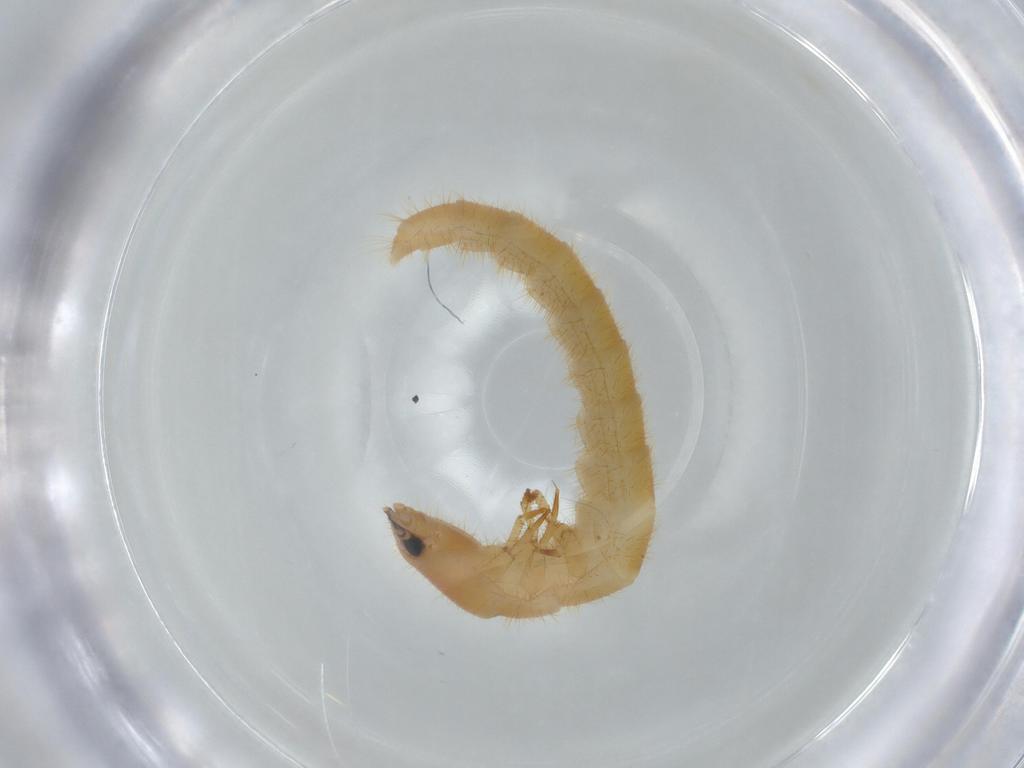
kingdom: Animalia
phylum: Arthropoda
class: Insecta
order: Coleoptera
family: Phengodidae
